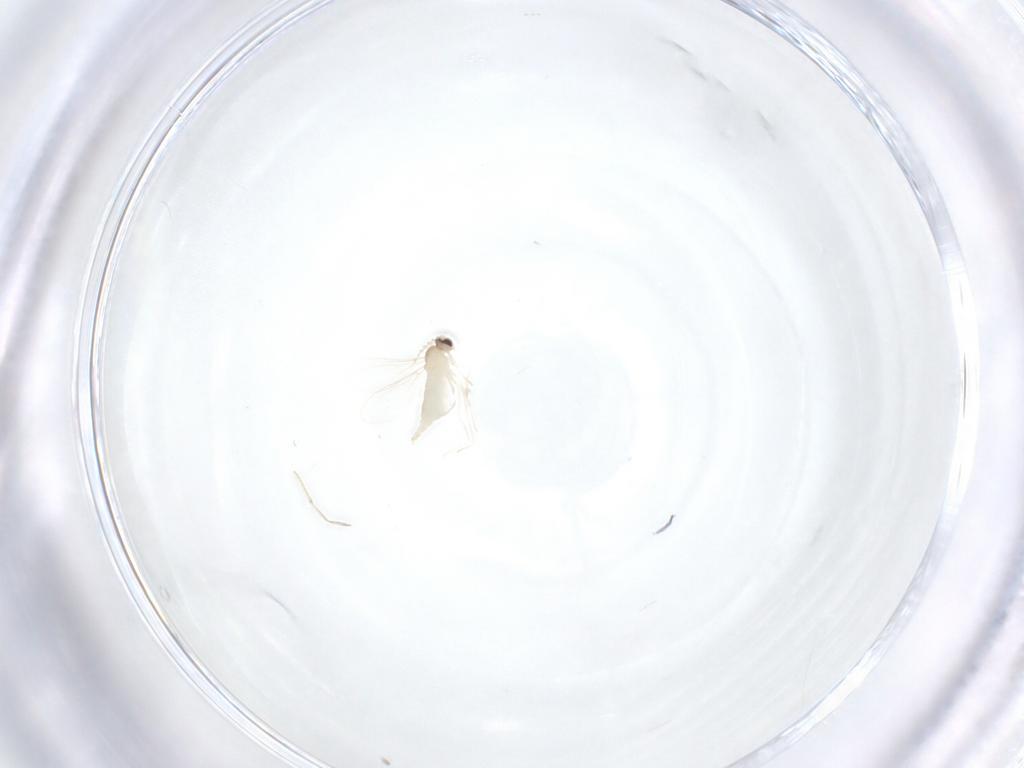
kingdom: Animalia
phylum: Arthropoda
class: Insecta
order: Diptera
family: Cecidomyiidae
